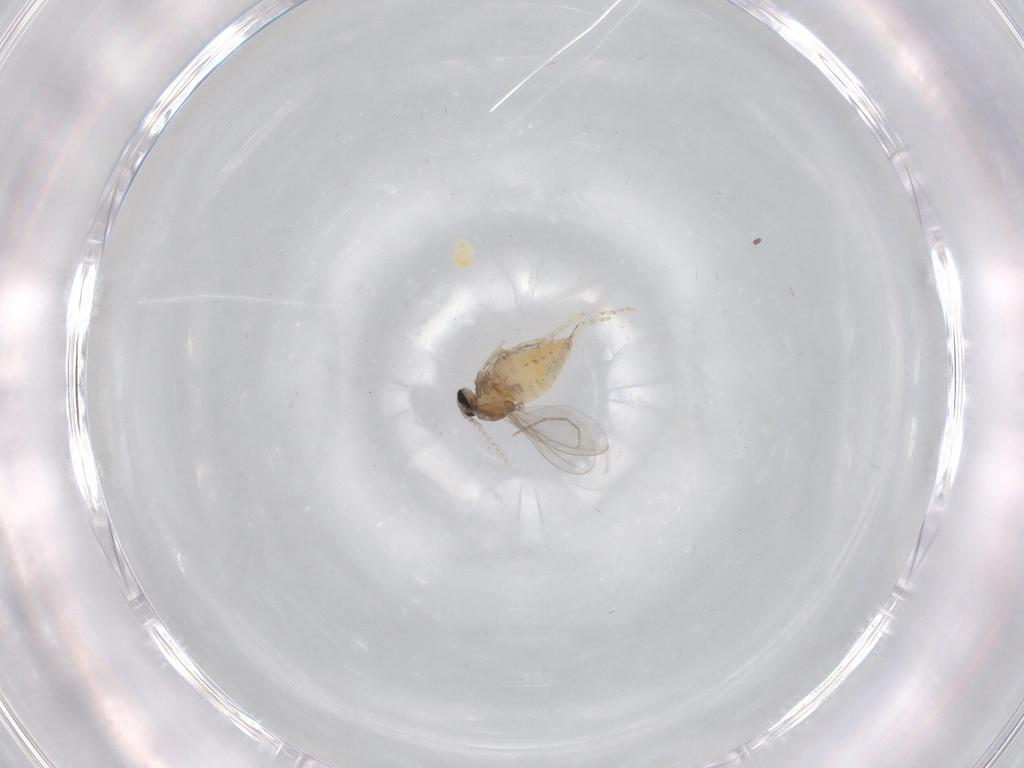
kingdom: Animalia
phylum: Arthropoda
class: Insecta
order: Diptera
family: Cecidomyiidae
